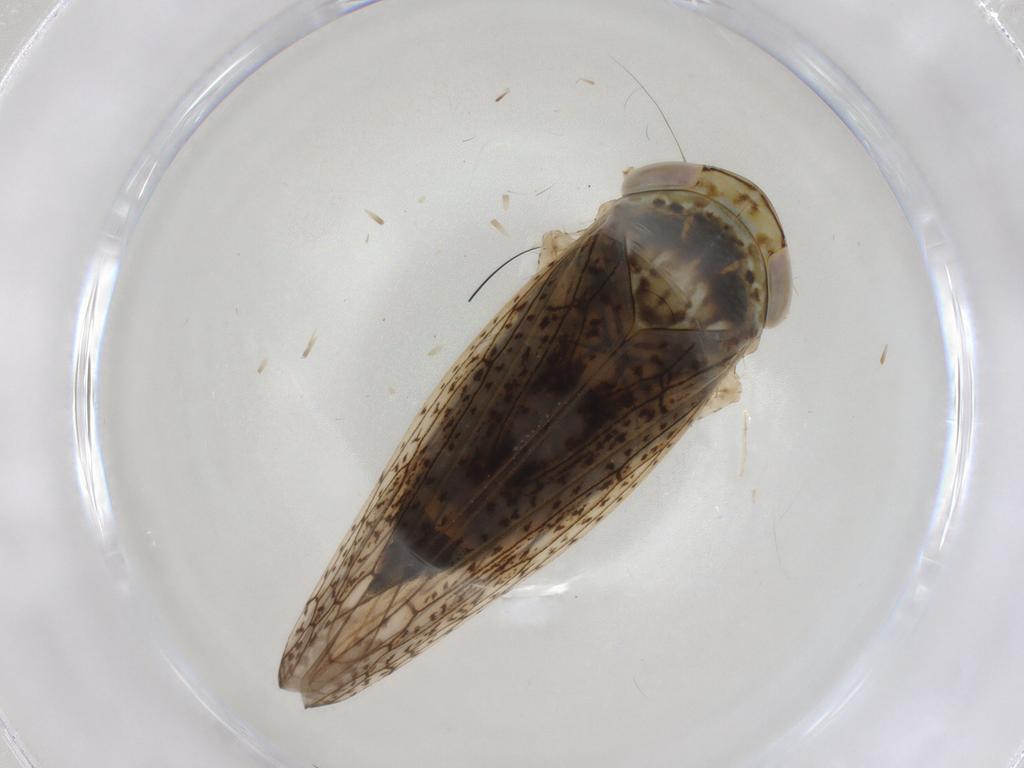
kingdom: Animalia
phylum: Arthropoda
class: Insecta
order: Hemiptera
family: Cicadellidae
